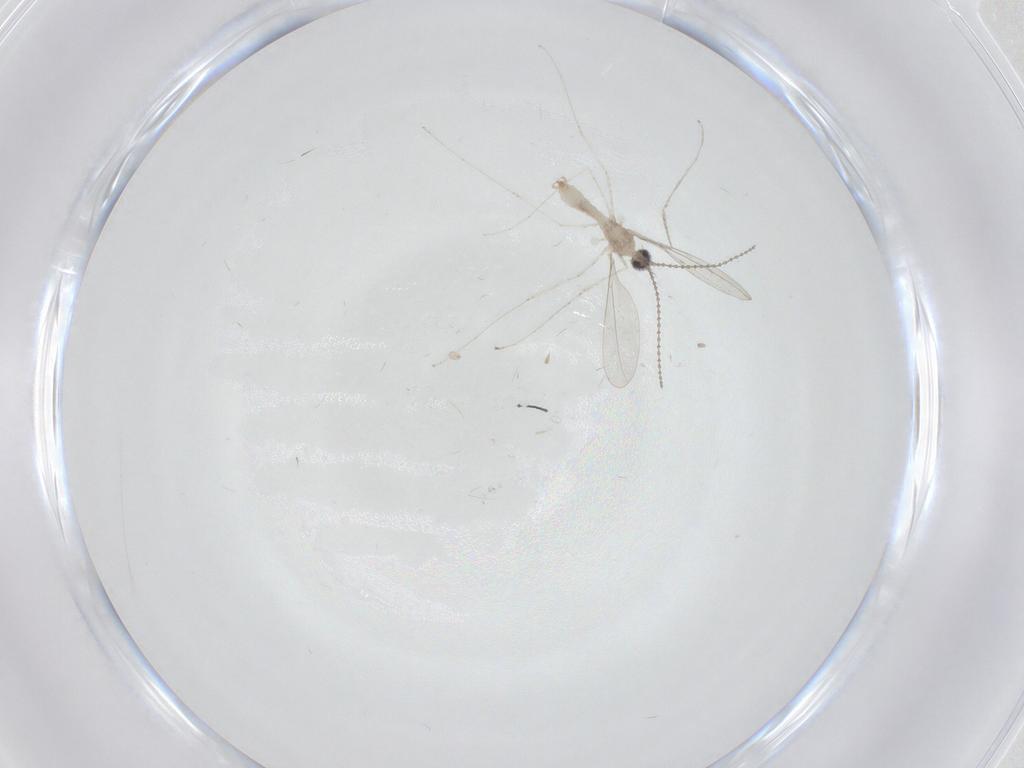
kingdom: Animalia
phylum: Arthropoda
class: Insecta
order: Diptera
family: Cecidomyiidae
